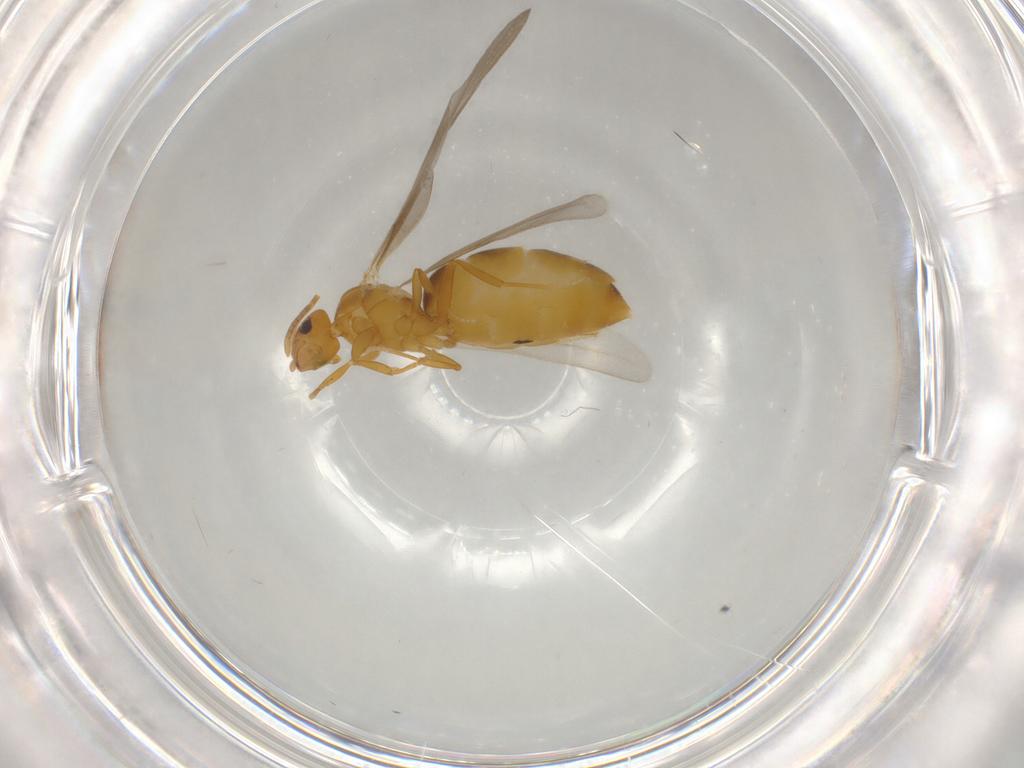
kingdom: Animalia
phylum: Arthropoda
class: Insecta
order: Hymenoptera
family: Formicidae
